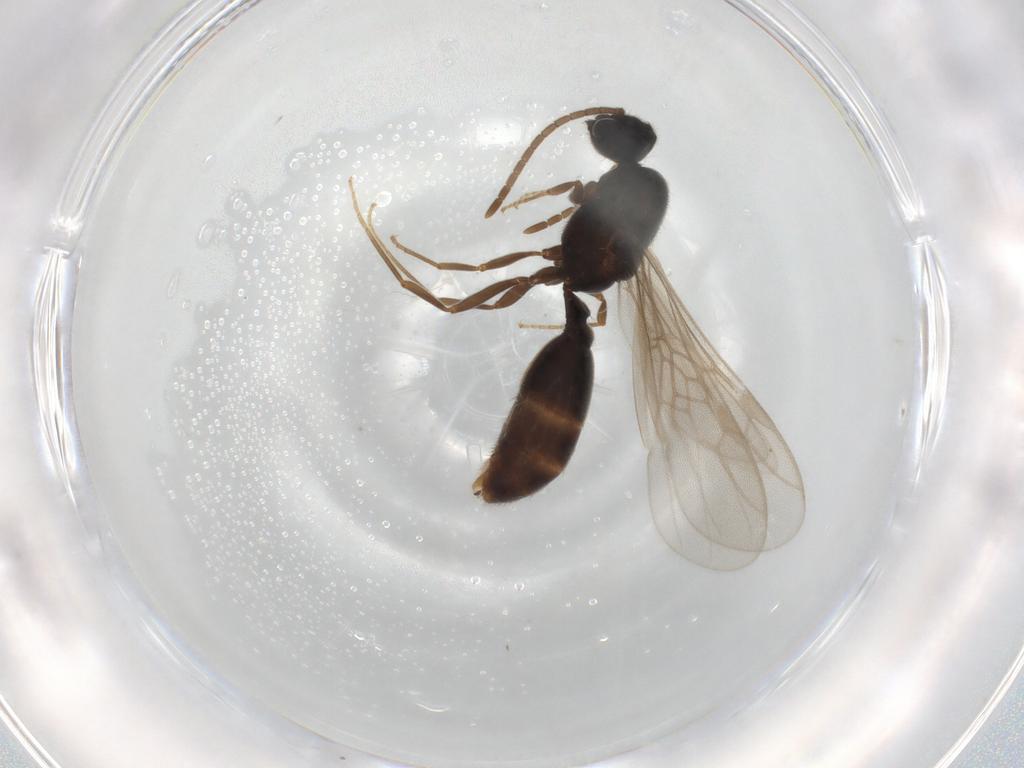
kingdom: Animalia
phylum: Arthropoda
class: Insecta
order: Hymenoptera
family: Formicidae
